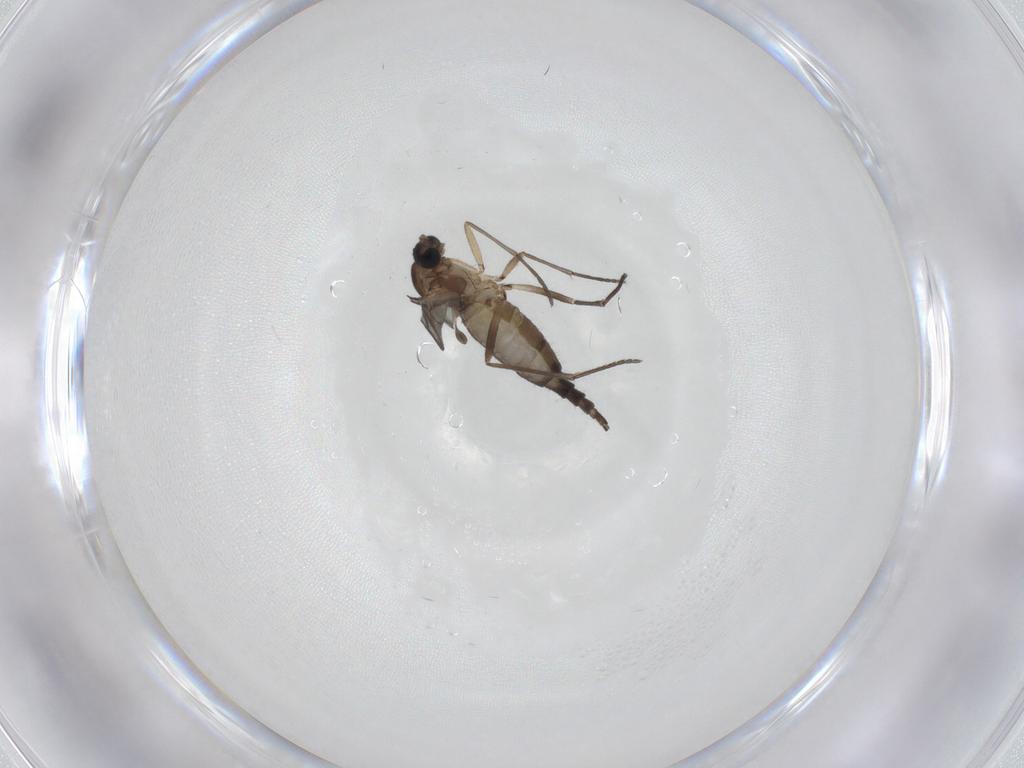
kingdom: Animalia
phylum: Arthropoda
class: Insecta
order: Diptera
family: Sciaridae
